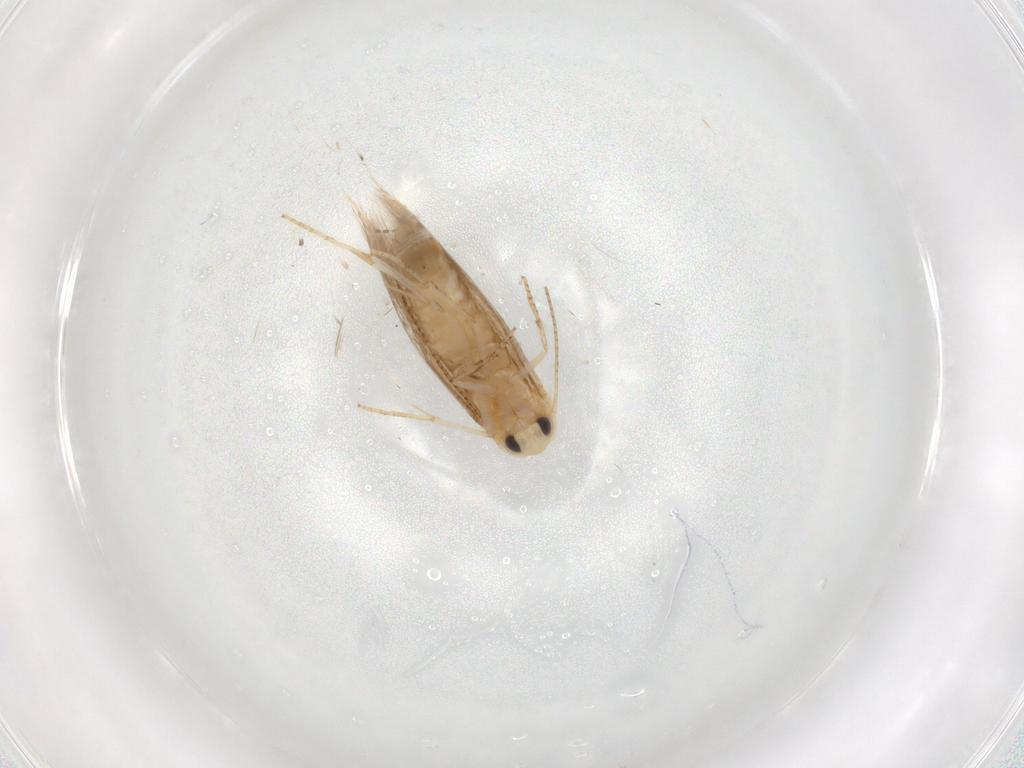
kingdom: Animalia
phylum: Arthropoda
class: Insecta
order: Lepidoptera
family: Bucculatricidae
